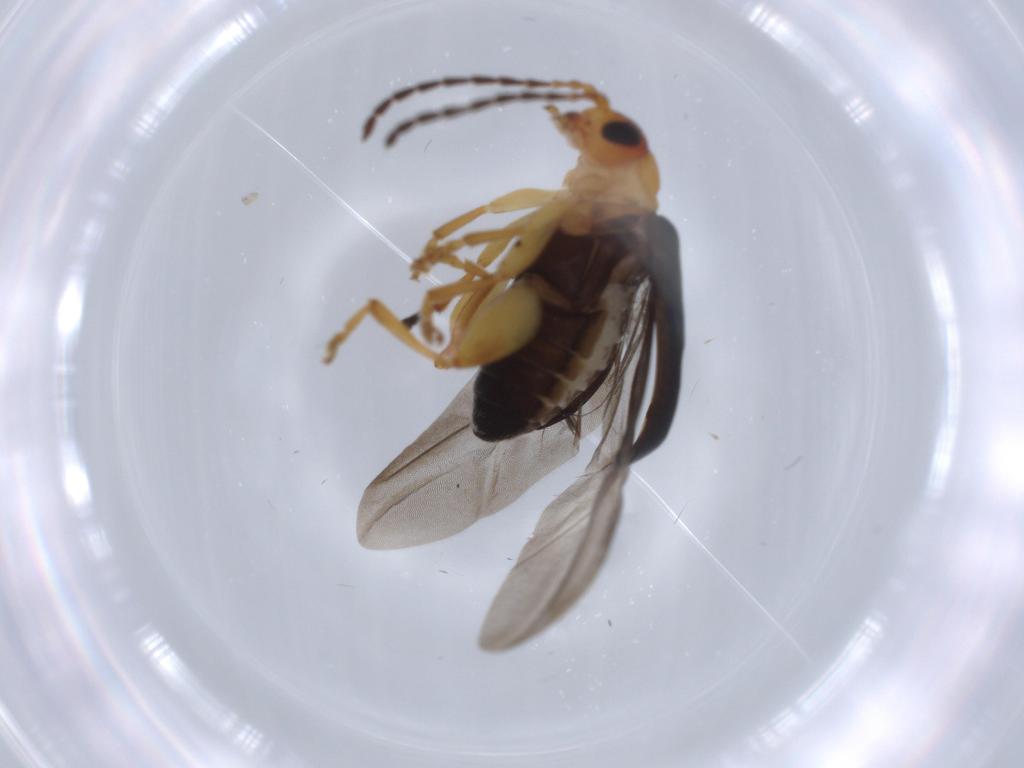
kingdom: Animalia
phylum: Arthropoda
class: Insecta
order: Coleoptera
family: Chrysomelidae
